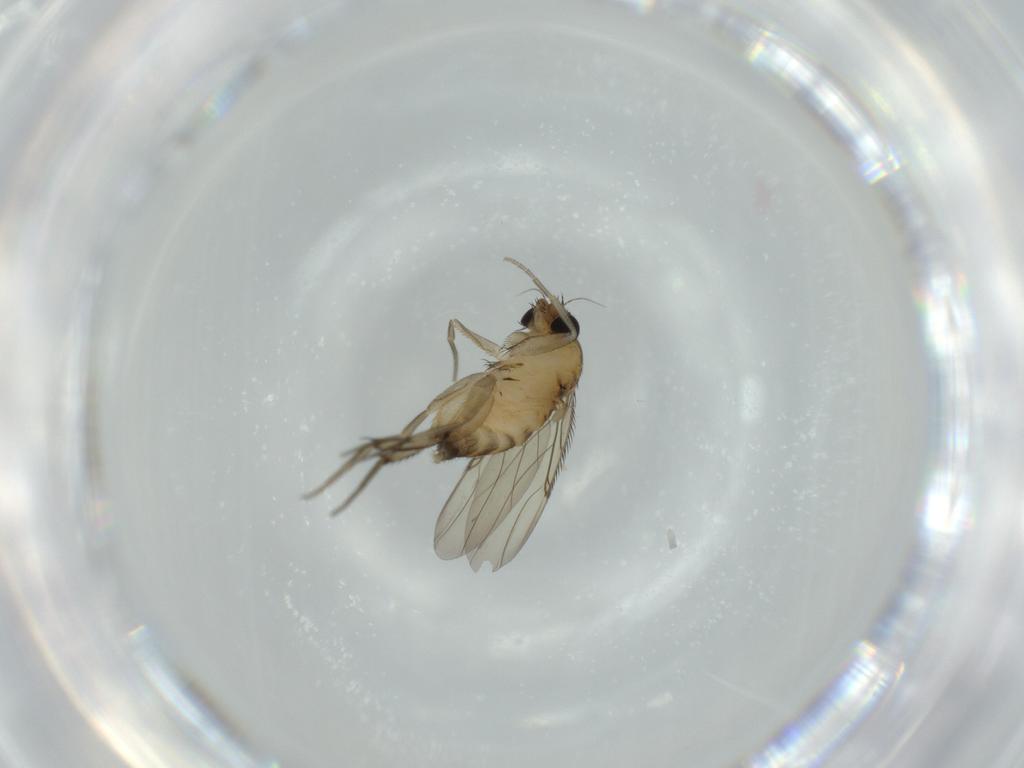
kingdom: Animalia
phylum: Arthropoda
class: Insecta
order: Diptera
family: Phoridae
